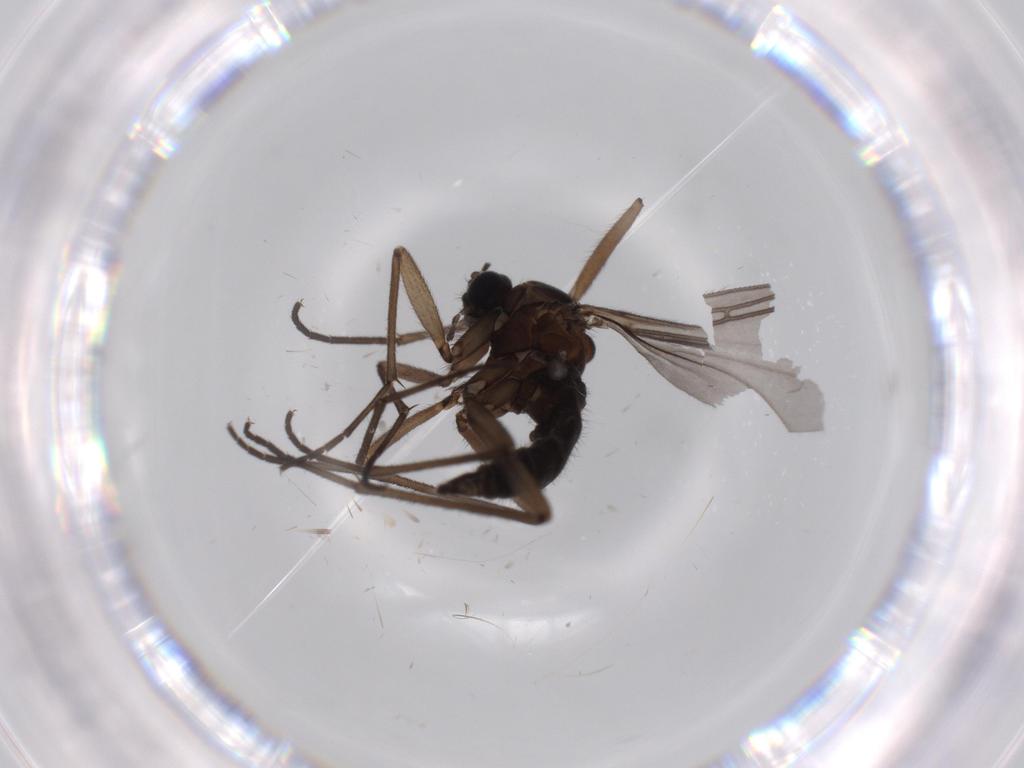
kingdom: Animalia
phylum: Arthropoda
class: Insecta
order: Diptera
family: Sciaridae
